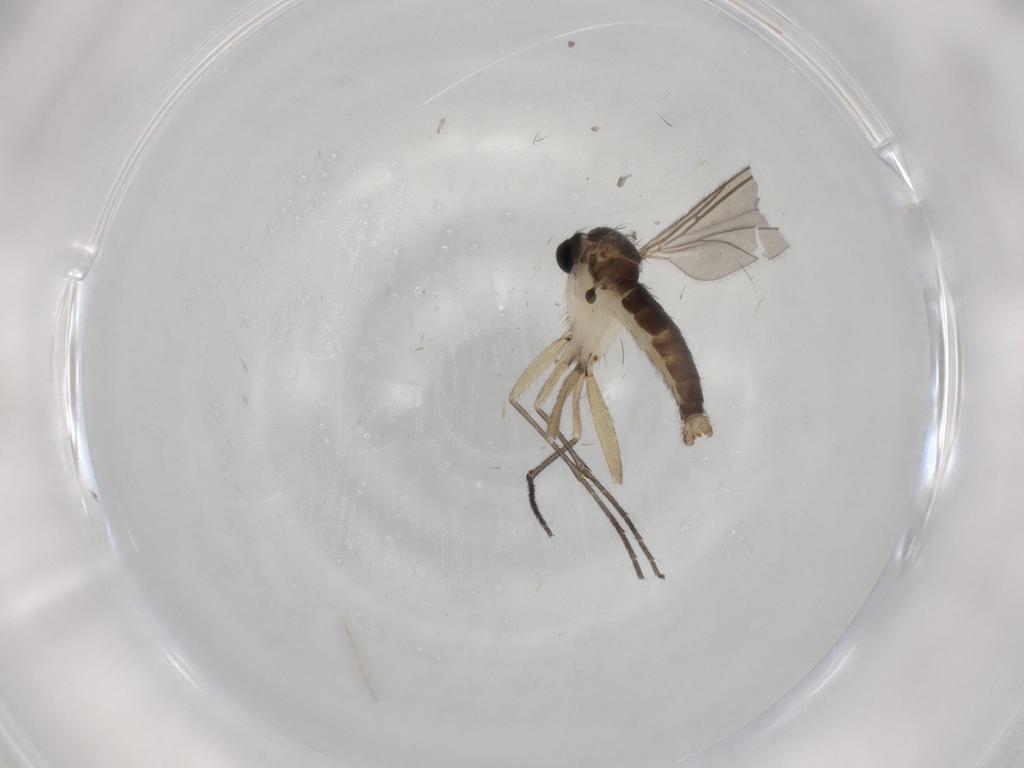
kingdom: Animalia
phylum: Arthropoda
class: Insecta
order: Diptera
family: Sciaridae
